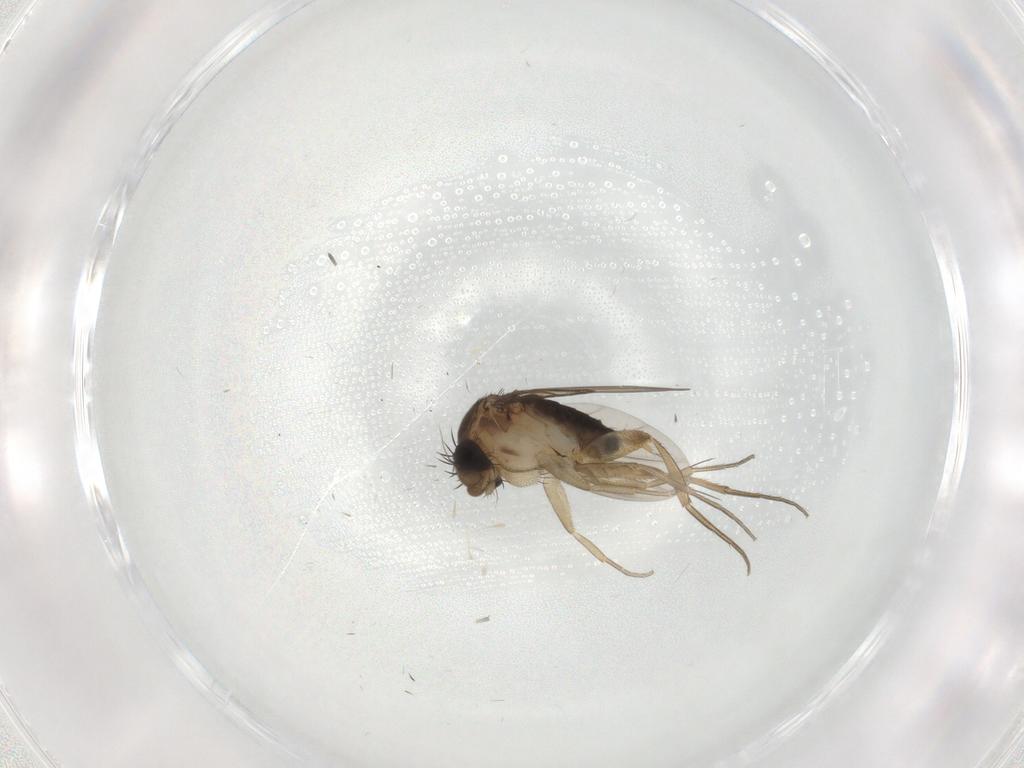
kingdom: Animalia
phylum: Arthropoda
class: Insecta
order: Diptera
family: Phoridae
